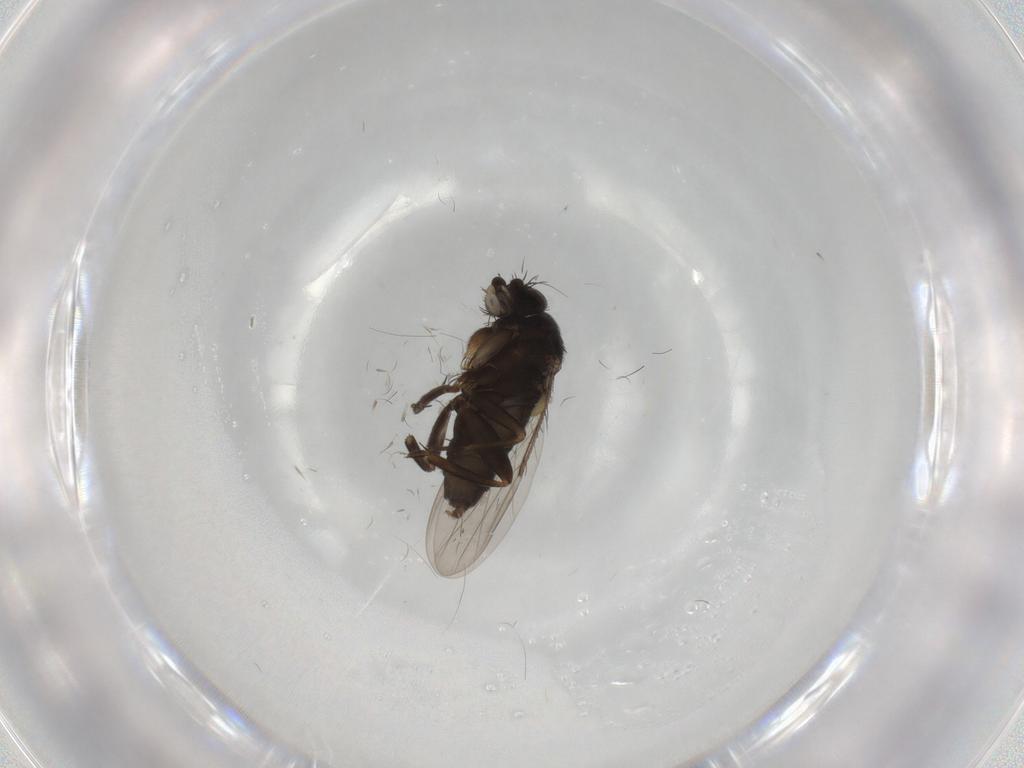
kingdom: Animalia
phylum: Arthropoda
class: Insecta
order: Diptera
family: Phoridae
